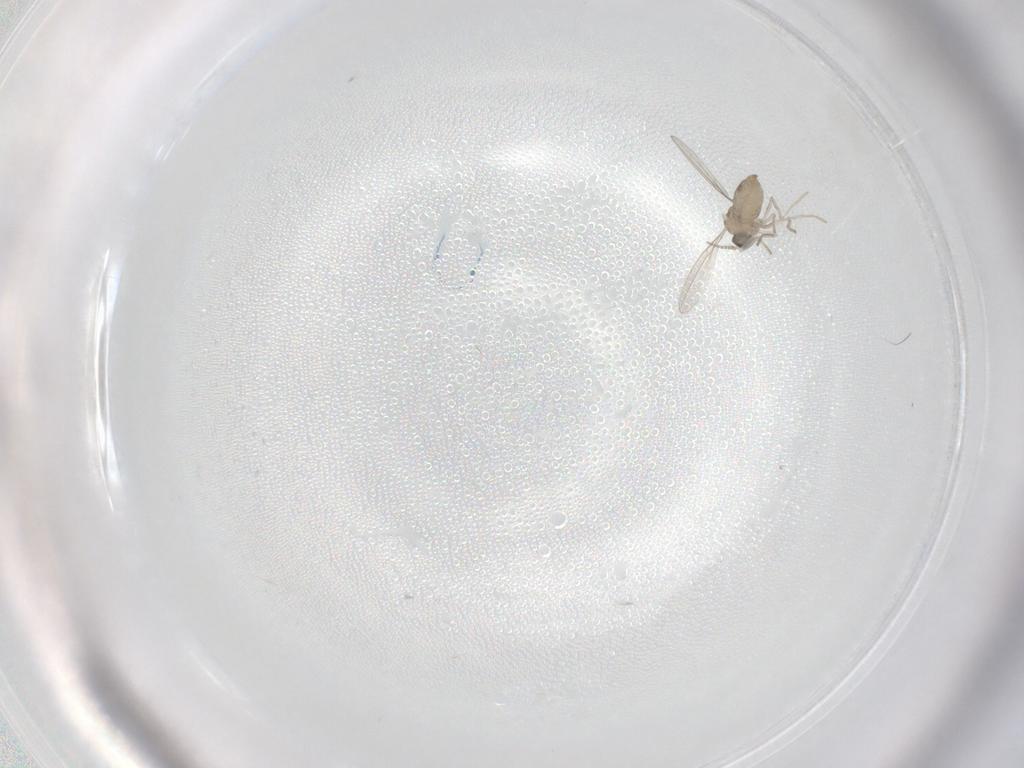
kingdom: Animalia
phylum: Arthropoda
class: Insecta
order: Diptera
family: Cecidomyiidae
